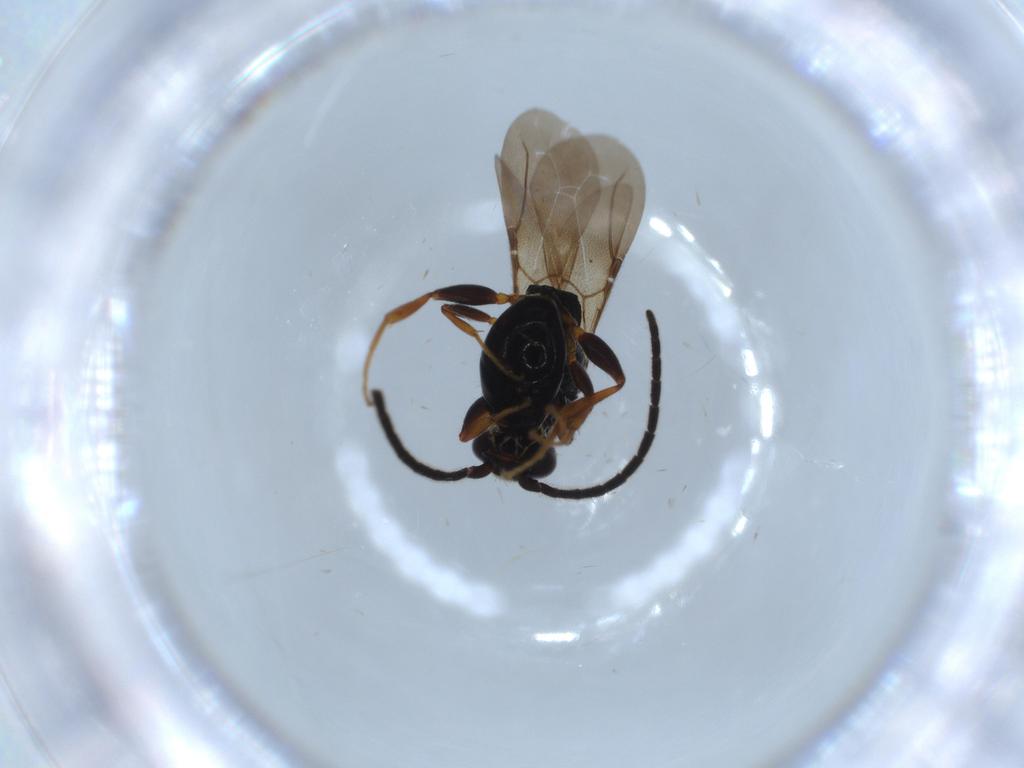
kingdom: Animalia
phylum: Arthropoda
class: Insecta
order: Hymenoptera
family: Bethylidae
